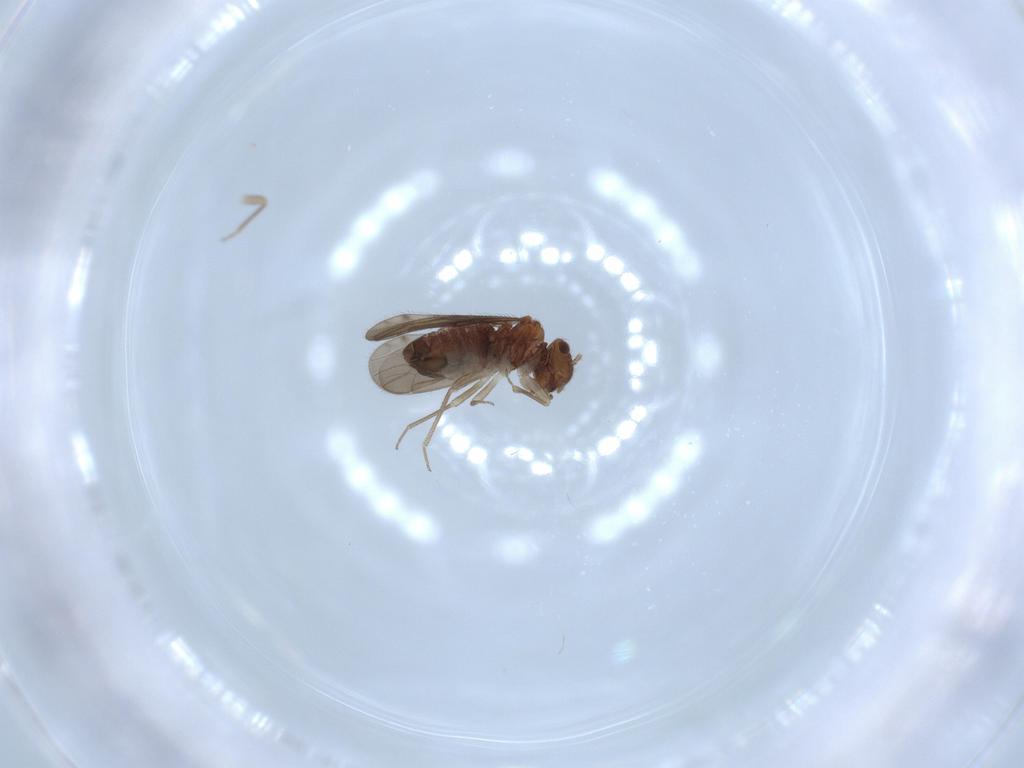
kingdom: Animalia
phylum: Arthropoda
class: Insecta
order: Psocodea
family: Ectopsocidae
